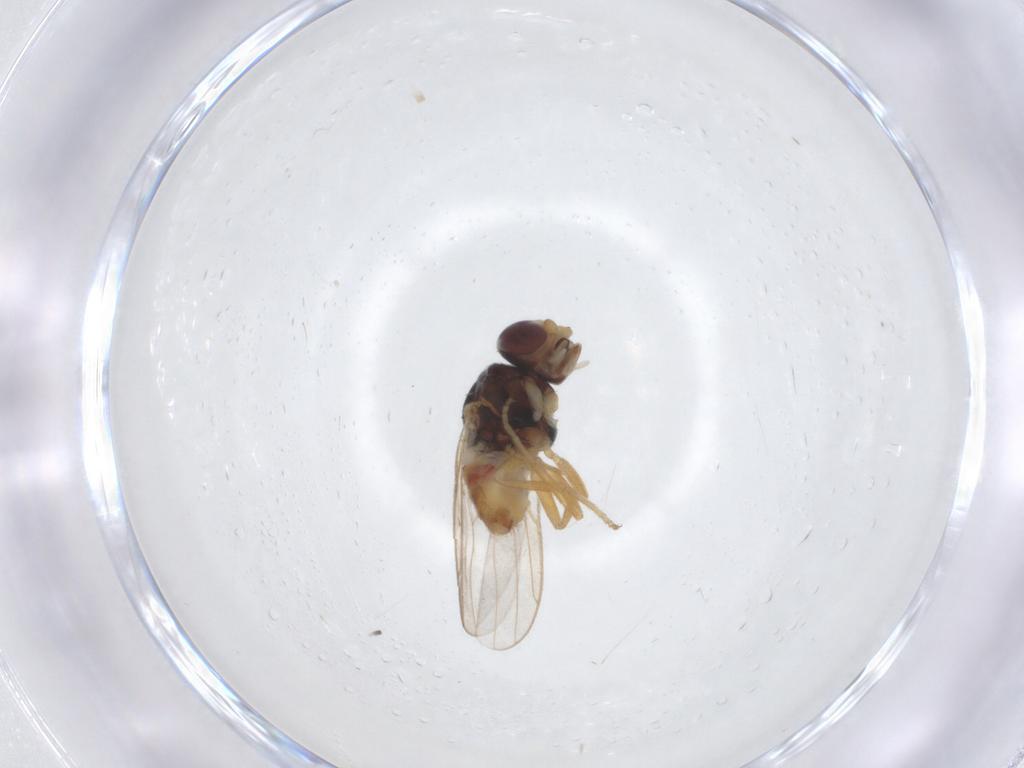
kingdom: Animalia
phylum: Arthropoda
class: Insecta
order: Diptera
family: Chloropidae
